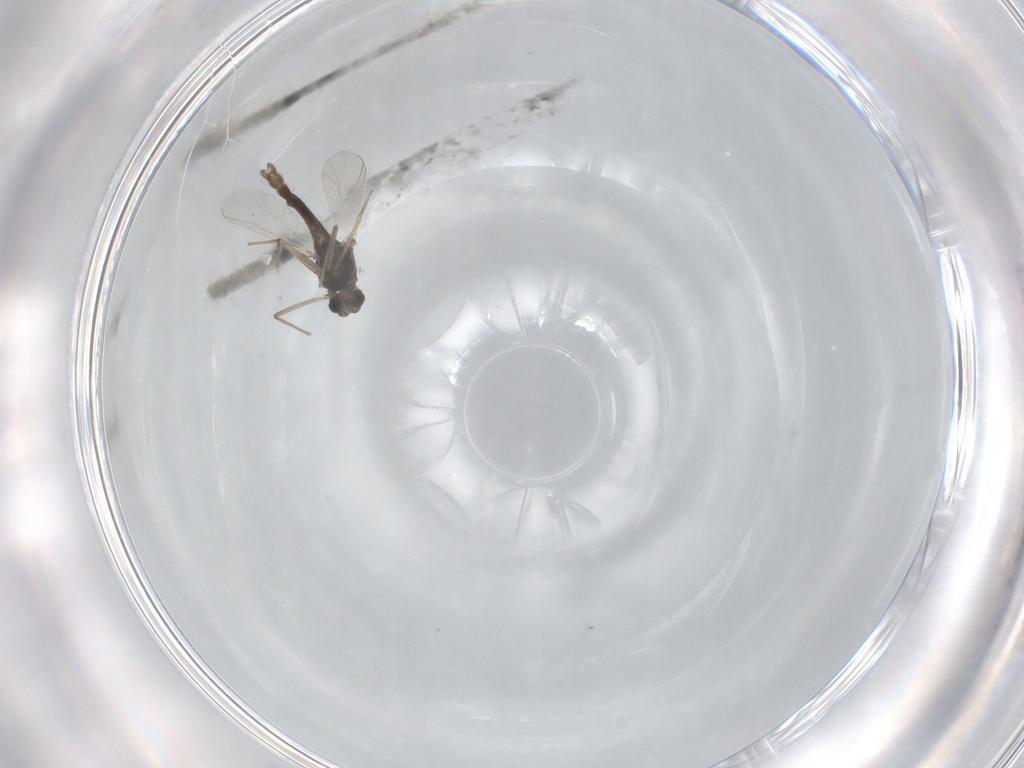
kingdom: Animalia
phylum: Arthropoda
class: Insecta
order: Diptera
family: Chironomidae
